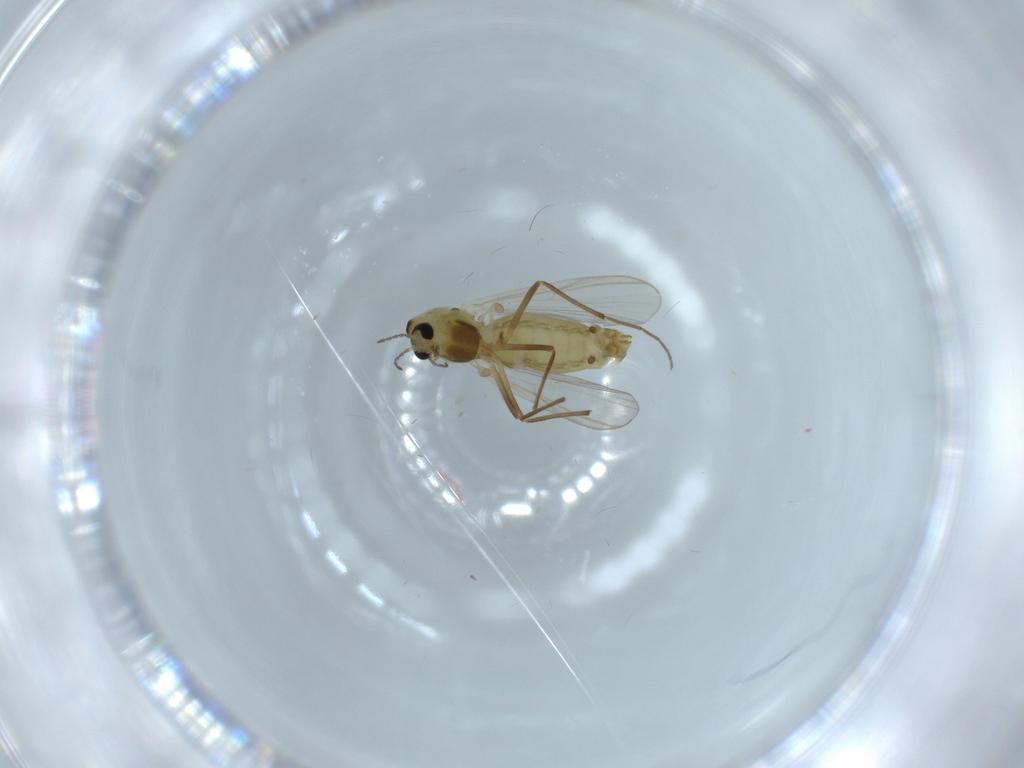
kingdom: Animalia
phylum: Arthropoda
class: Insecta
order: Diptera
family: Chironomidae
